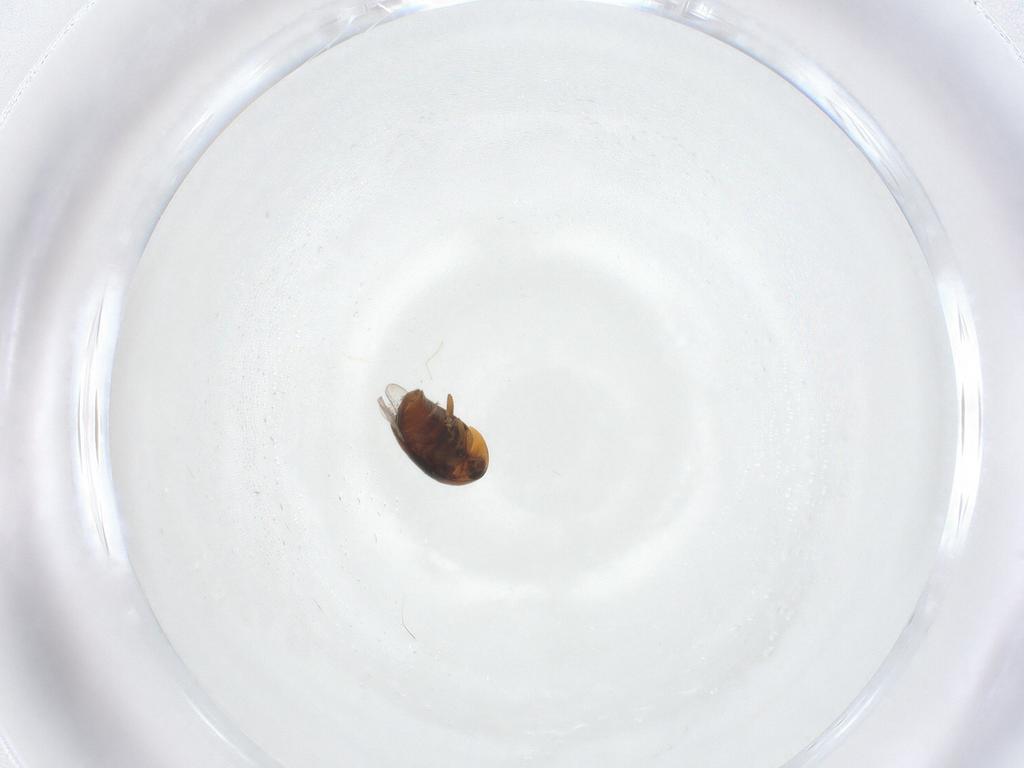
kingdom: Animalia
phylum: Arthropoda
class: Insecta
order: Coleoptera
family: Corylophidae
